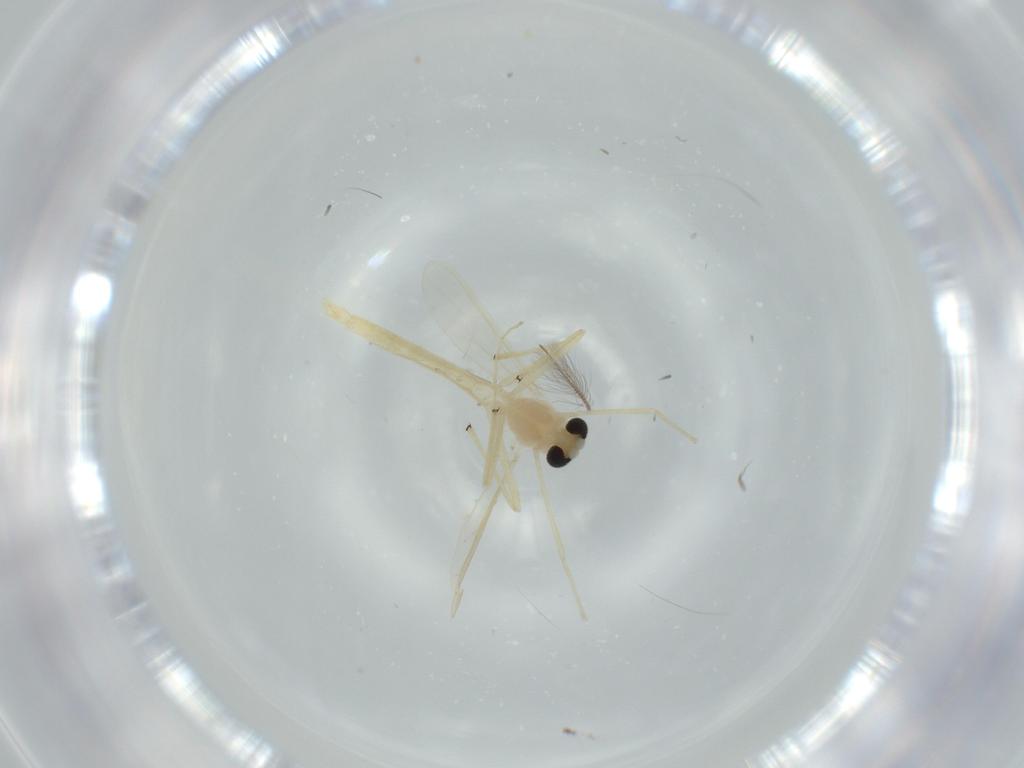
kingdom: Animalia
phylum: Arthropoda
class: Insecta
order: Diptera
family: Chironomidae
